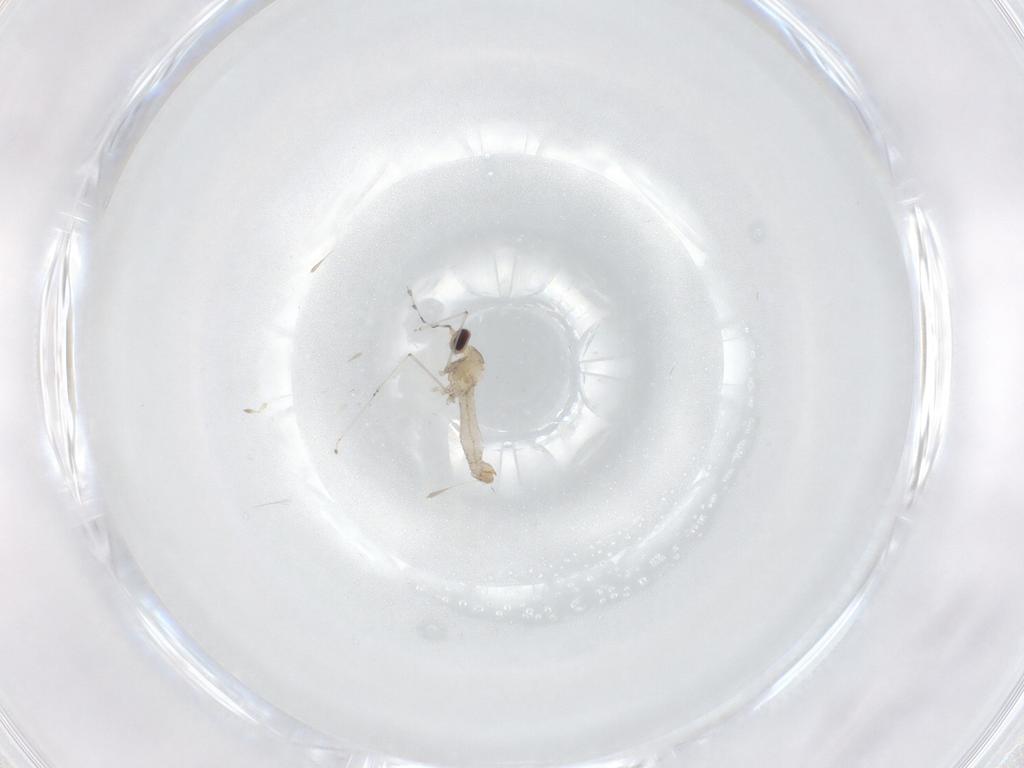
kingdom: Animalia
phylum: Arthropoda
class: Insecta
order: Diptera
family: Cecidomyiidae
